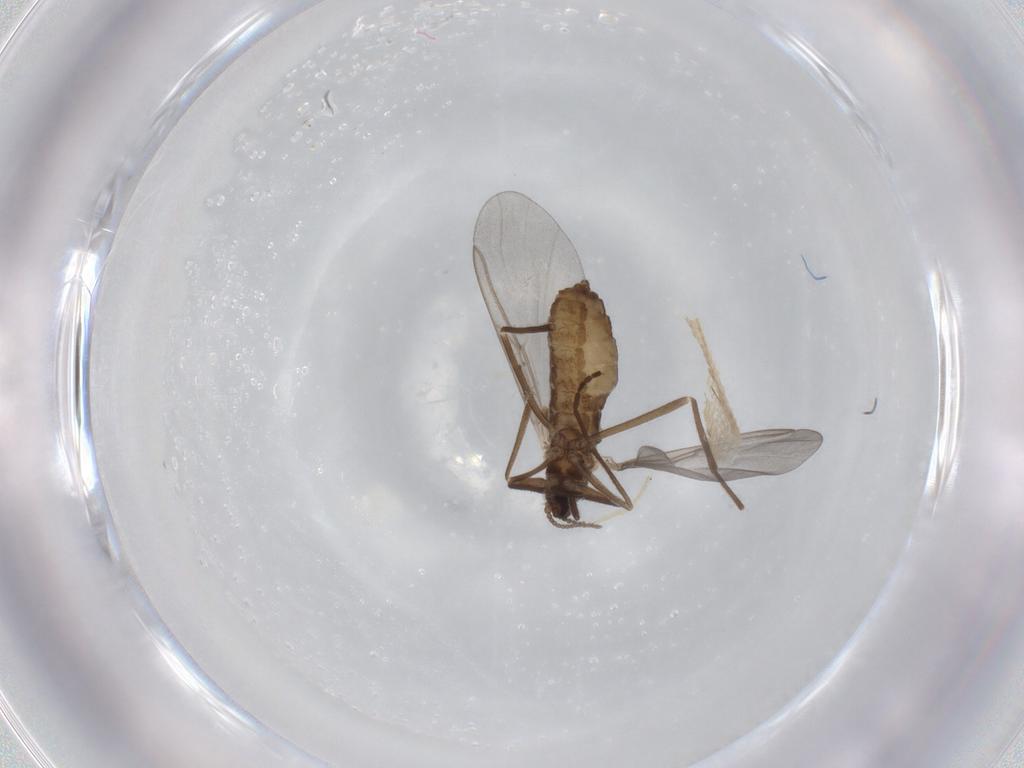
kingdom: Animalia
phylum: Arthropoda
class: Insecta
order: Diptera
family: Cecidomyiidae
